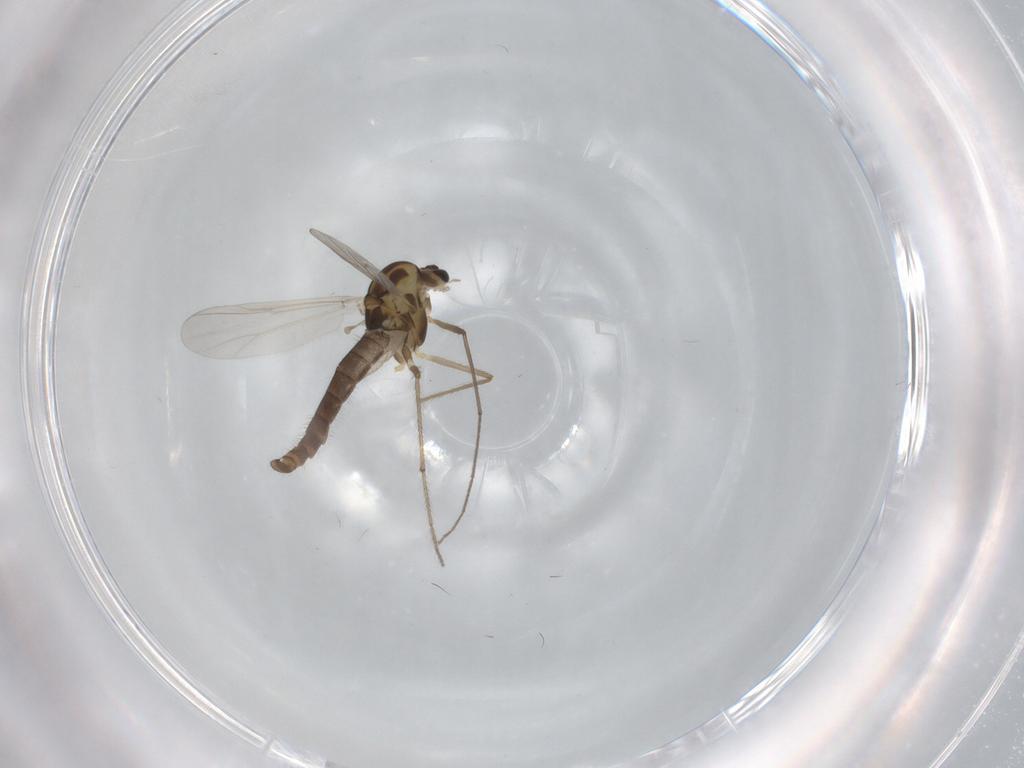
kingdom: Animalia
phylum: Arthropoda
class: Insecta
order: Diptera
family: Chironomidae
